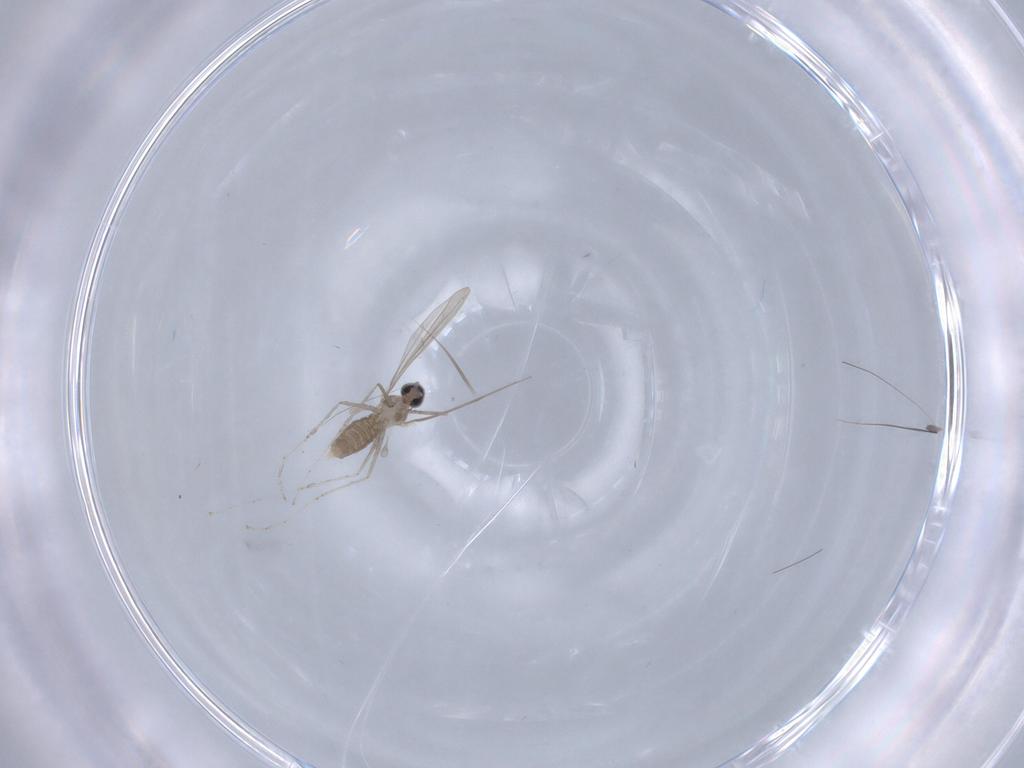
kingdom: Animalia
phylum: Arthropoda
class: Insecta
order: Diptera
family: Cecidomyiidae
